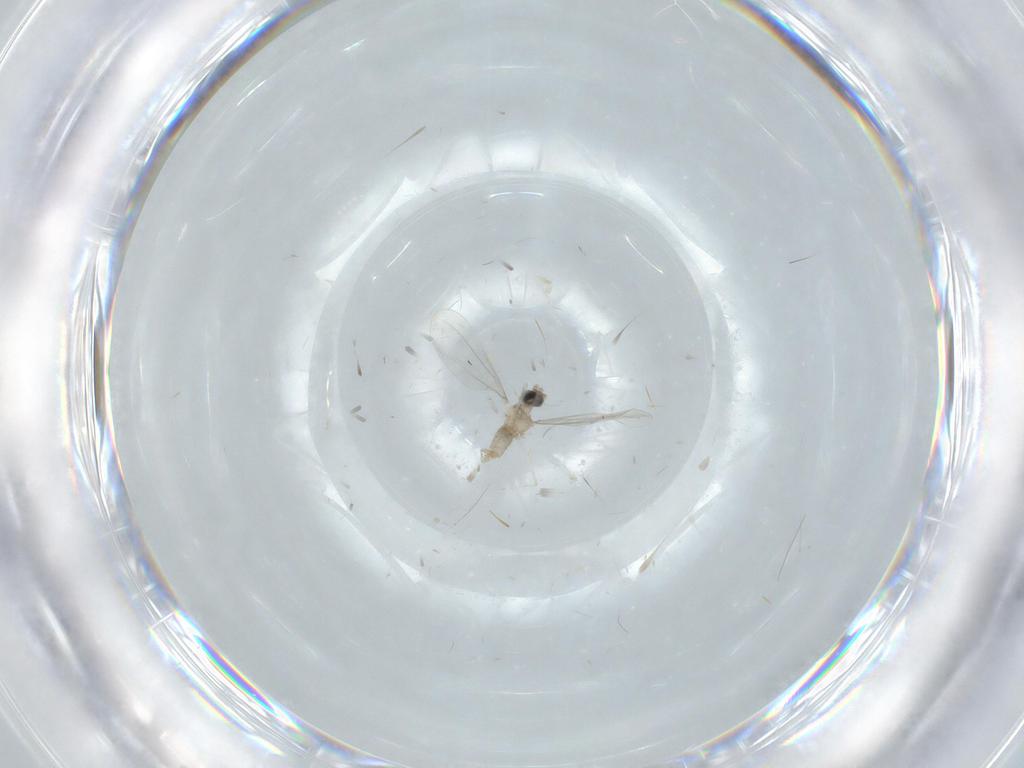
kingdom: Animalia
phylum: Arthropoda
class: Insecta
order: Diptera
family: Cecidomyiidae
